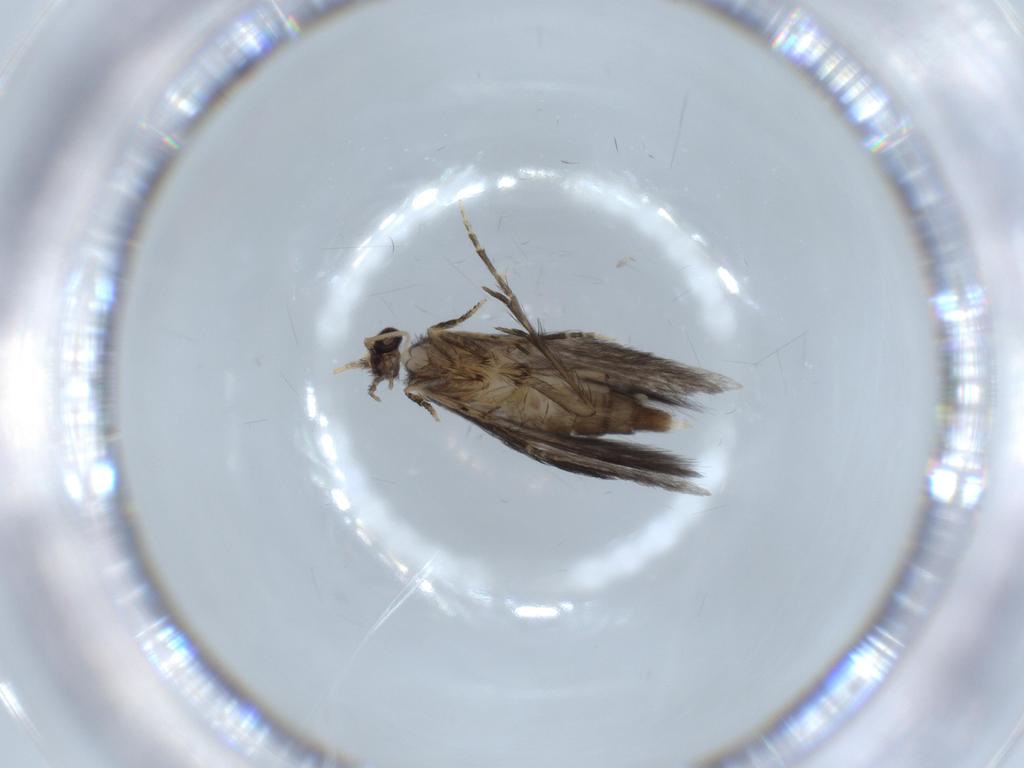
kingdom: Animalia
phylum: Arthropoda
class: Insecta
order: Trichoptera
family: Hydroptilidae
